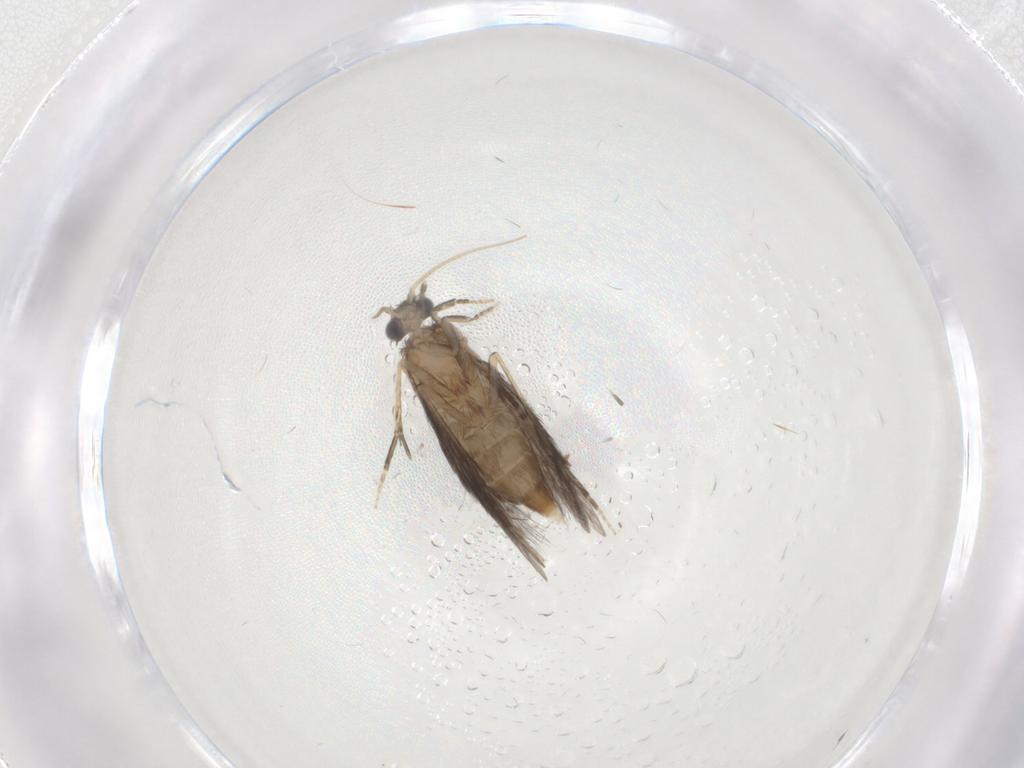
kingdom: Animalia
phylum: Arthropoda
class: Insecta
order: Trichoptera
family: Hydroptilidae
